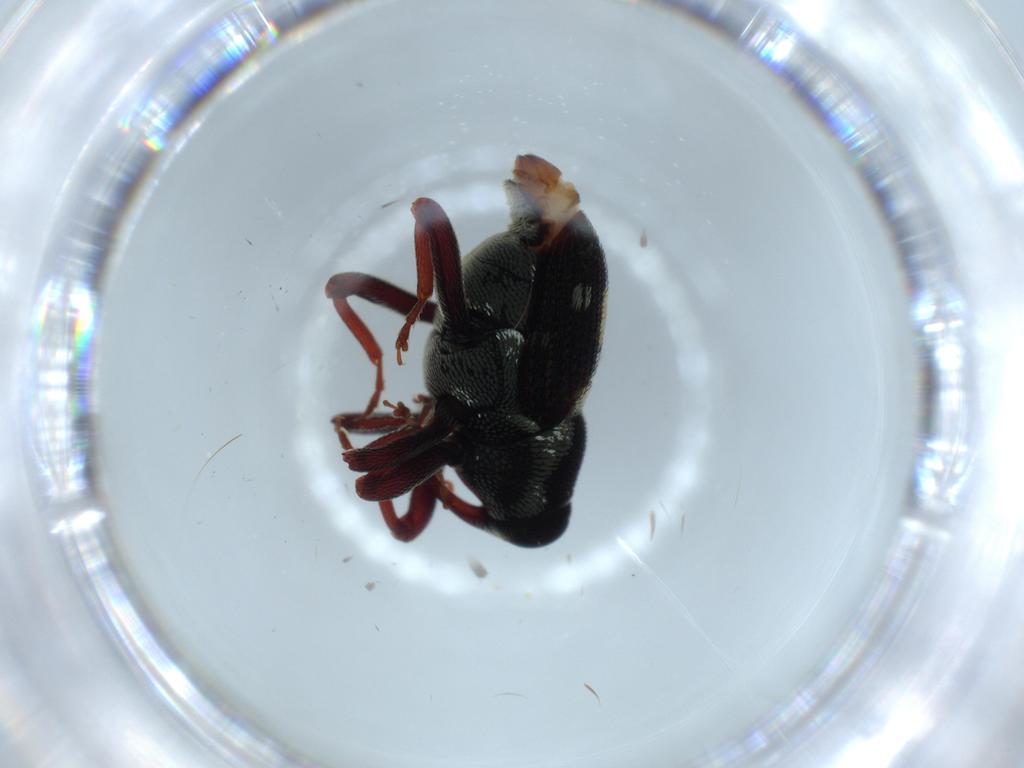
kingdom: Animalia
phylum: Arthropoda
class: Insecta
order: Coleoptera
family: Curculionidae
